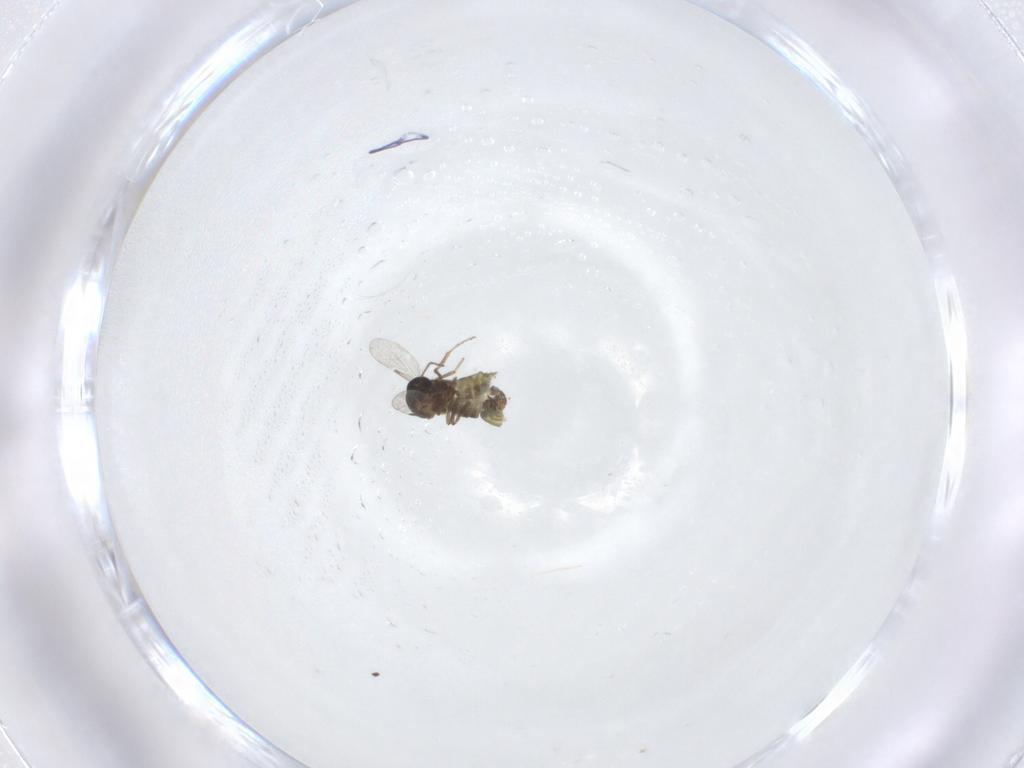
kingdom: Animalia
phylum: Arthropoda
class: Insecta
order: Diptera
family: Ceratopogonidae
